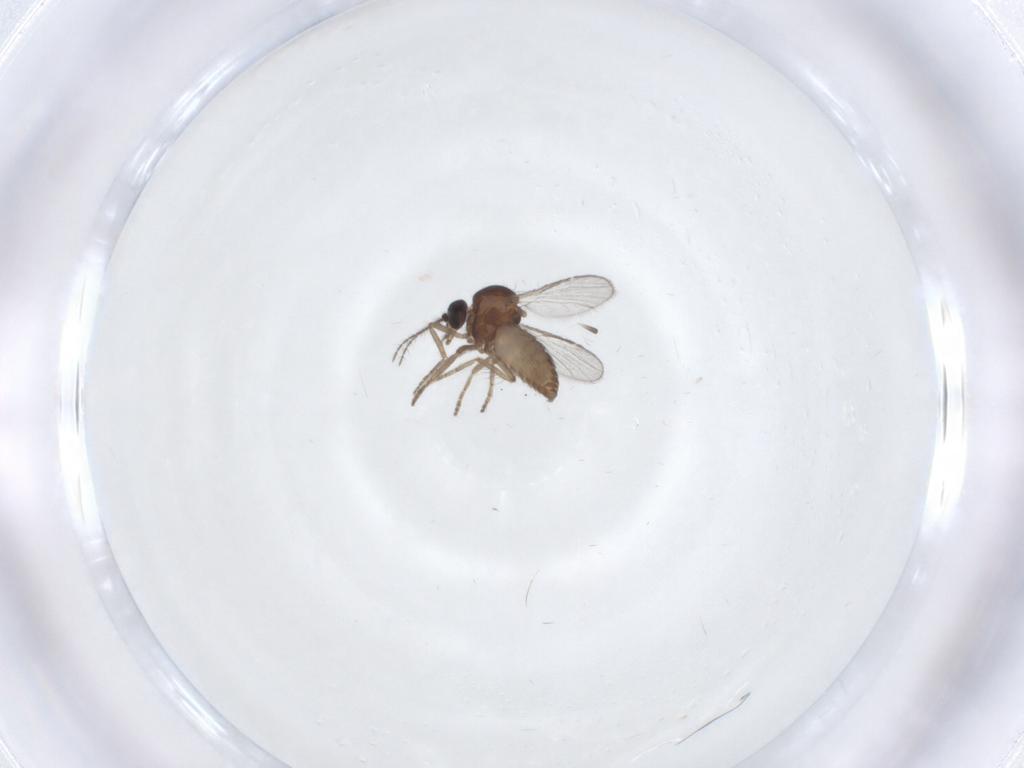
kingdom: Animalia
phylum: Arthropoda
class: Insecta
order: Diptera
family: Ceratopogonidae
